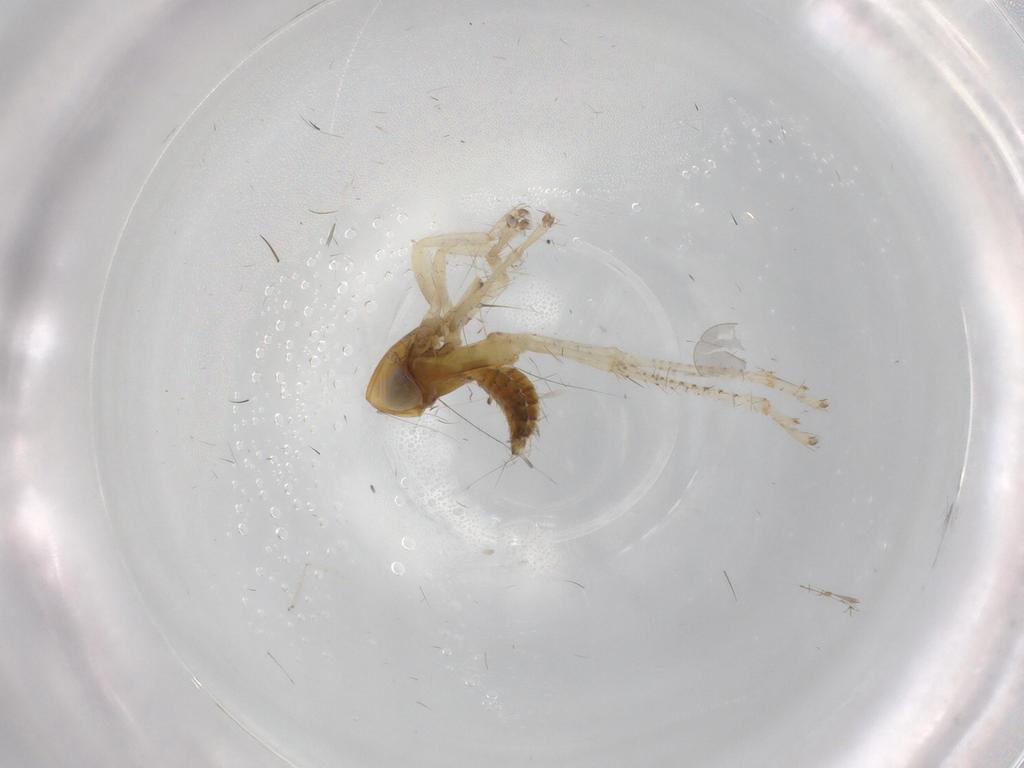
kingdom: Animalia
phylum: Arthropoda
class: Insecta
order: Hemiptera
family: Cicadellidae
